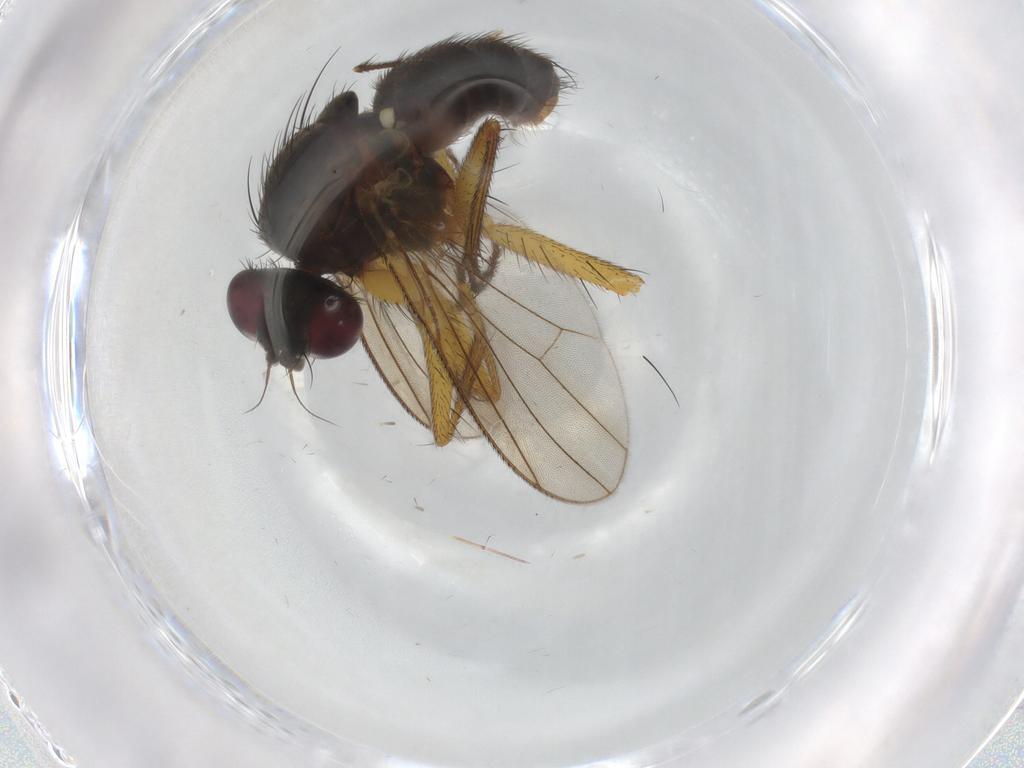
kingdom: Animalia
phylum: Arthropoda
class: Insecta
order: Diptera
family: Muscidae
